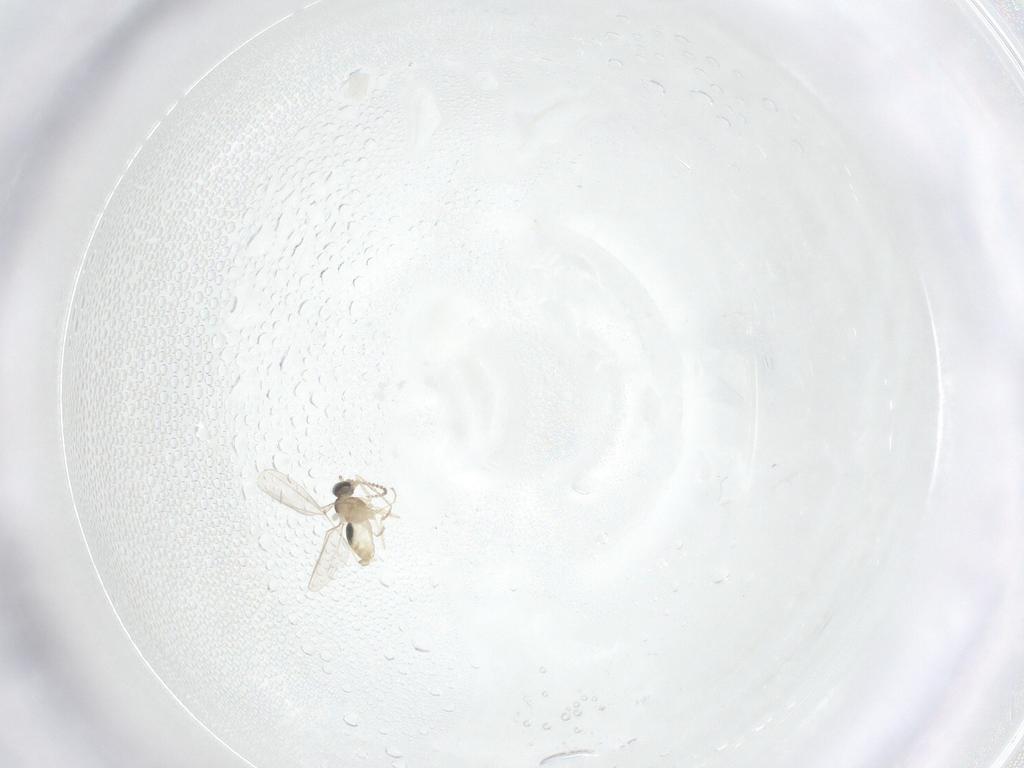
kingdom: Animalia
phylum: Arthropoda
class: Insecta
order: Diptera
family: Cecidomyiidae
